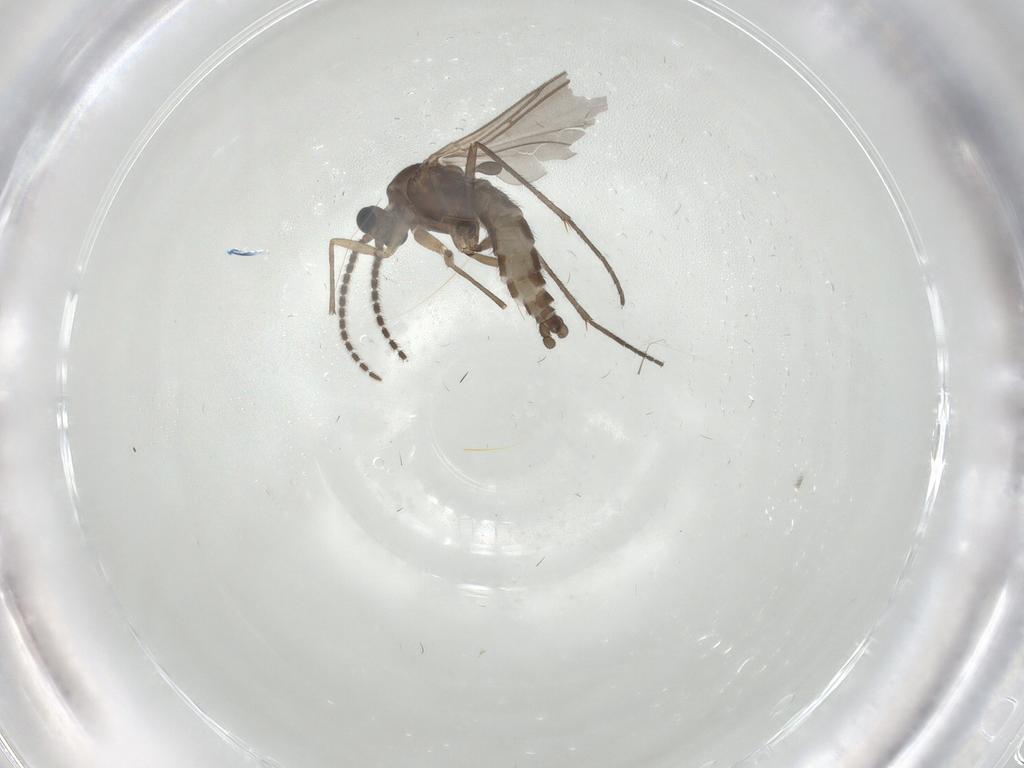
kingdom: Animalia
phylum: Arthropoda
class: Insecta
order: Diptera
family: Sciaridae
